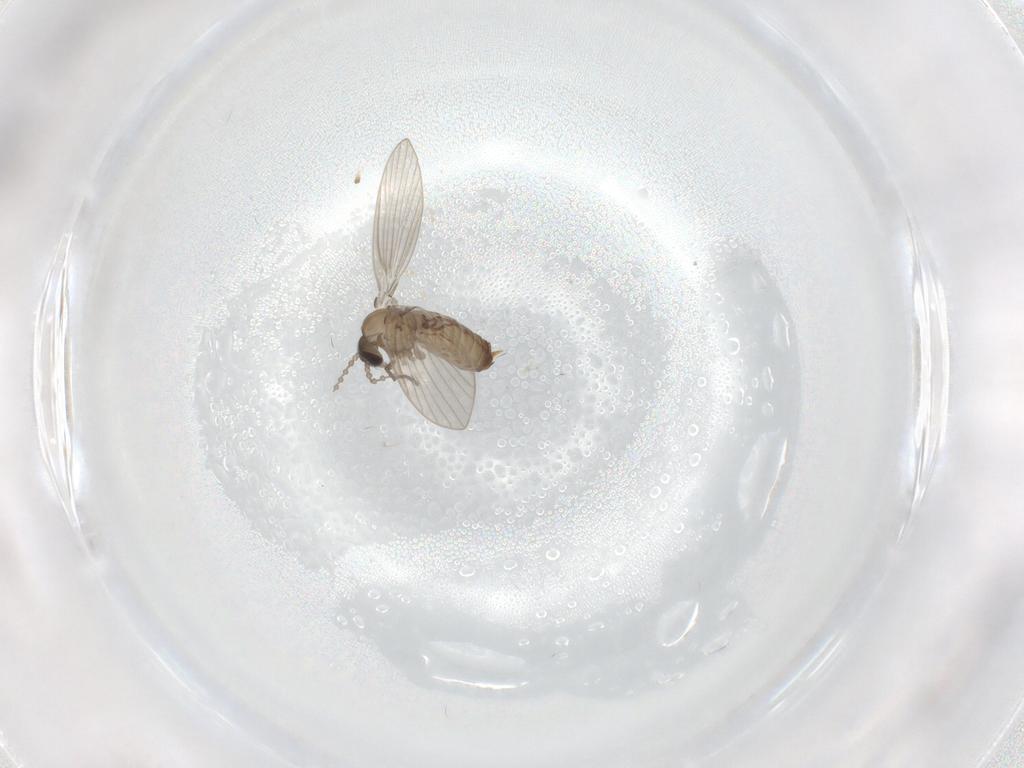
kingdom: Animalia
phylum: Arthropoda
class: Insecta
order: Diptera
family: Psychodidae
